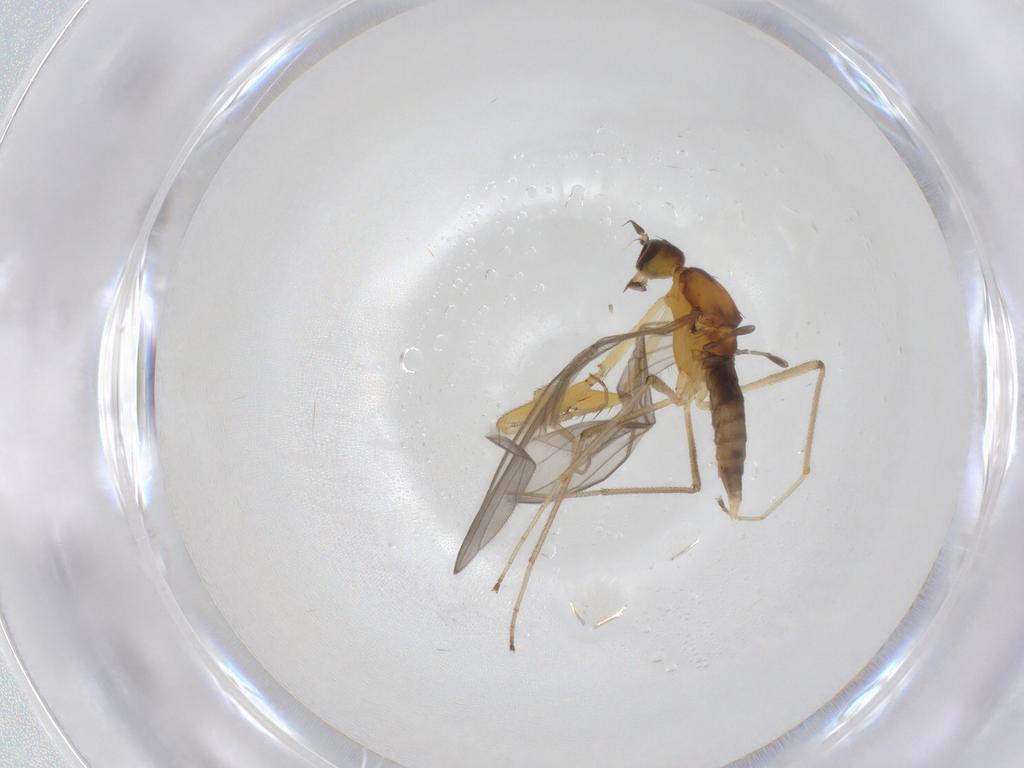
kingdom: Animalia
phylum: Arthropoda
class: Insecta
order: Diptera
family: Empididae
